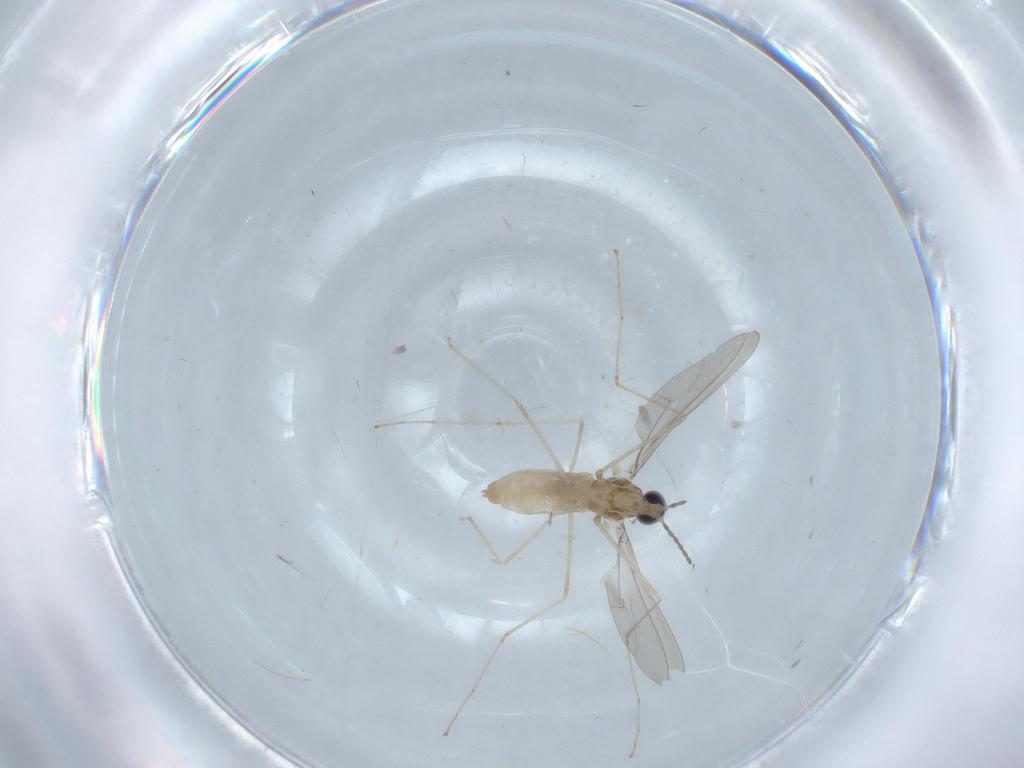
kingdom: Animalia
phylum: Arthropoda
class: Insecta
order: Diptera
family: Cecidomyiidae
